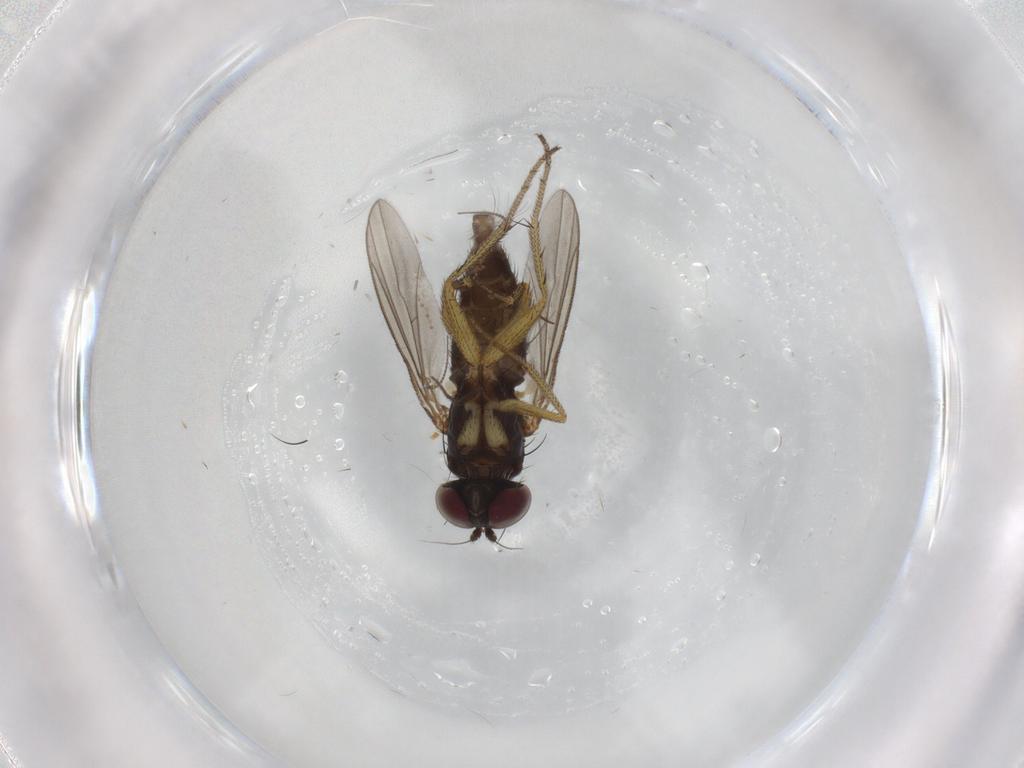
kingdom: Animalia
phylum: Arthropoda
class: Insecta
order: Diptera
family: Chironomidae
